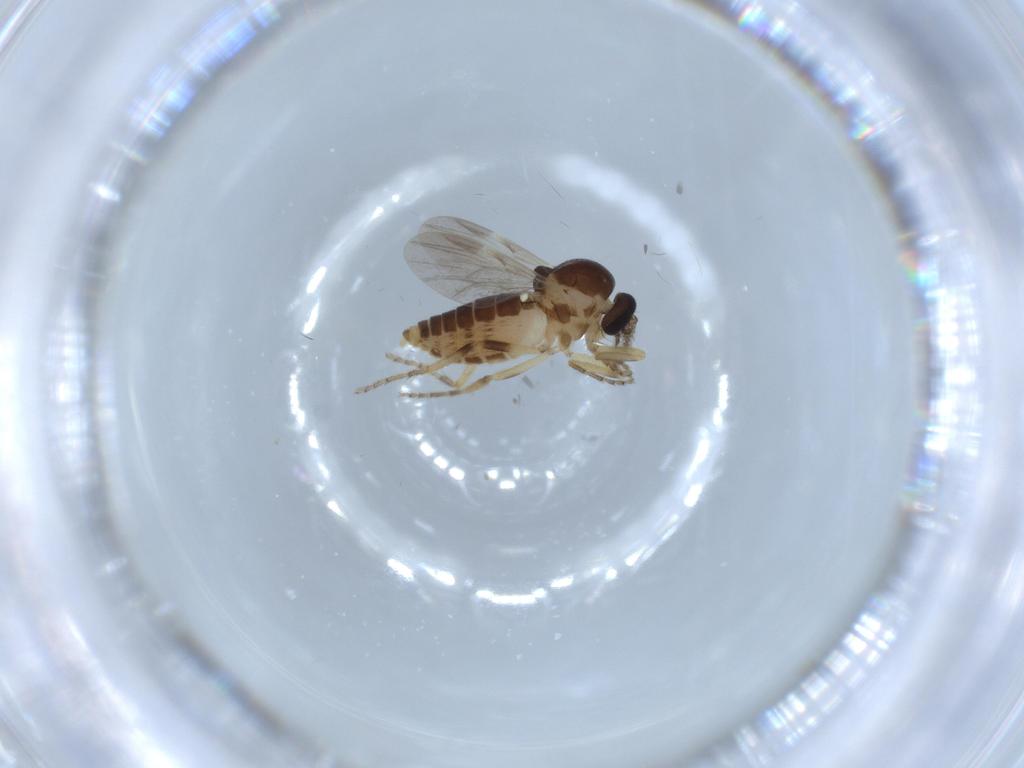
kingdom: Animalia
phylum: Arthropoda
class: Insecta
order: Diptera
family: Ceratopogonidae
